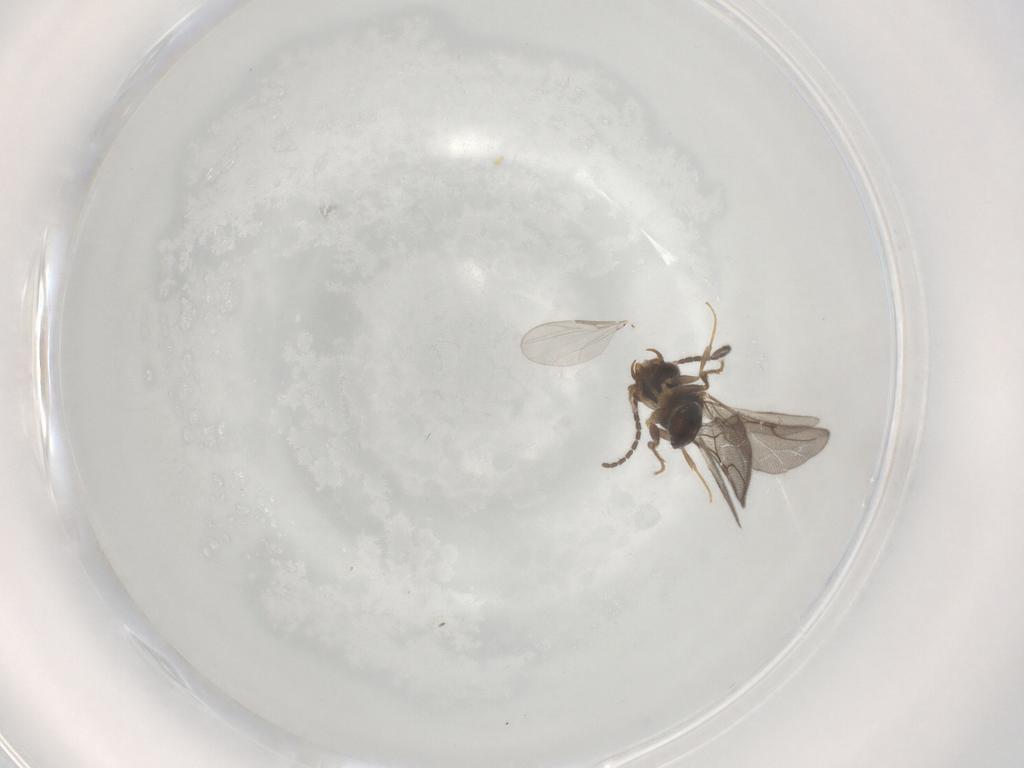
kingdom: Animalia
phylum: Arthropoda
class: Insecta
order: Hymenoptera
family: Bethylidae
